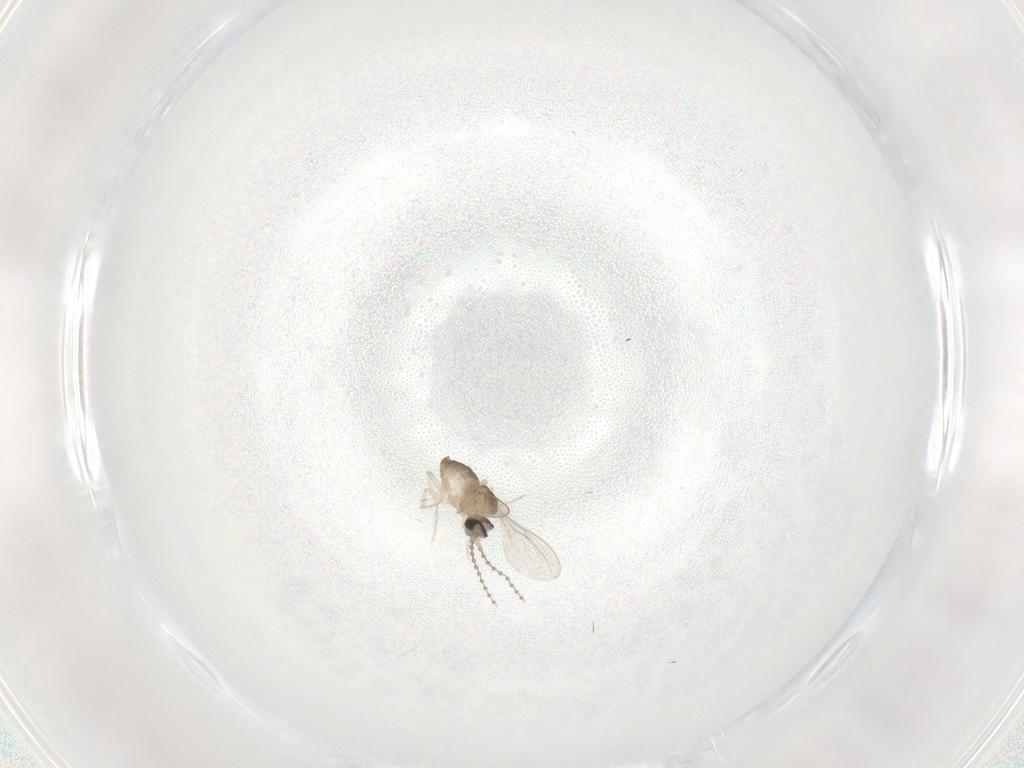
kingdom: Animalia
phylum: Arthropoda
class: Insecta
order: Diptera
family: Cecidomyiidae
